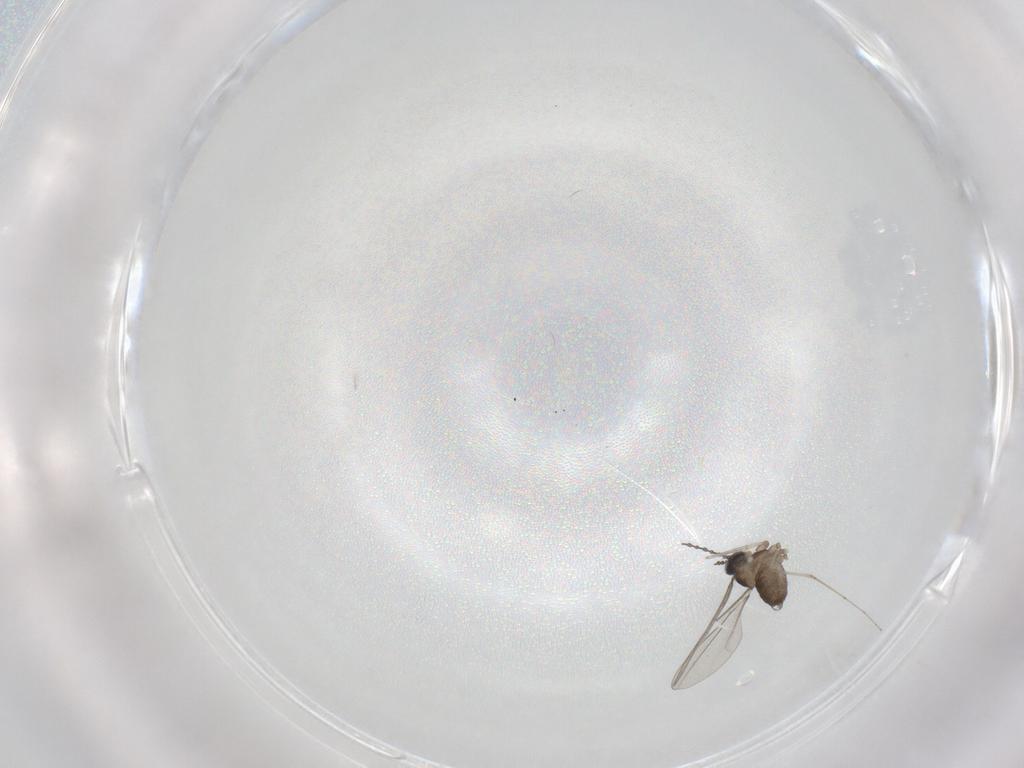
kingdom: Animalia
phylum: Arthropoda
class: Insecta
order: Diptera
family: Cecidomyiidae
